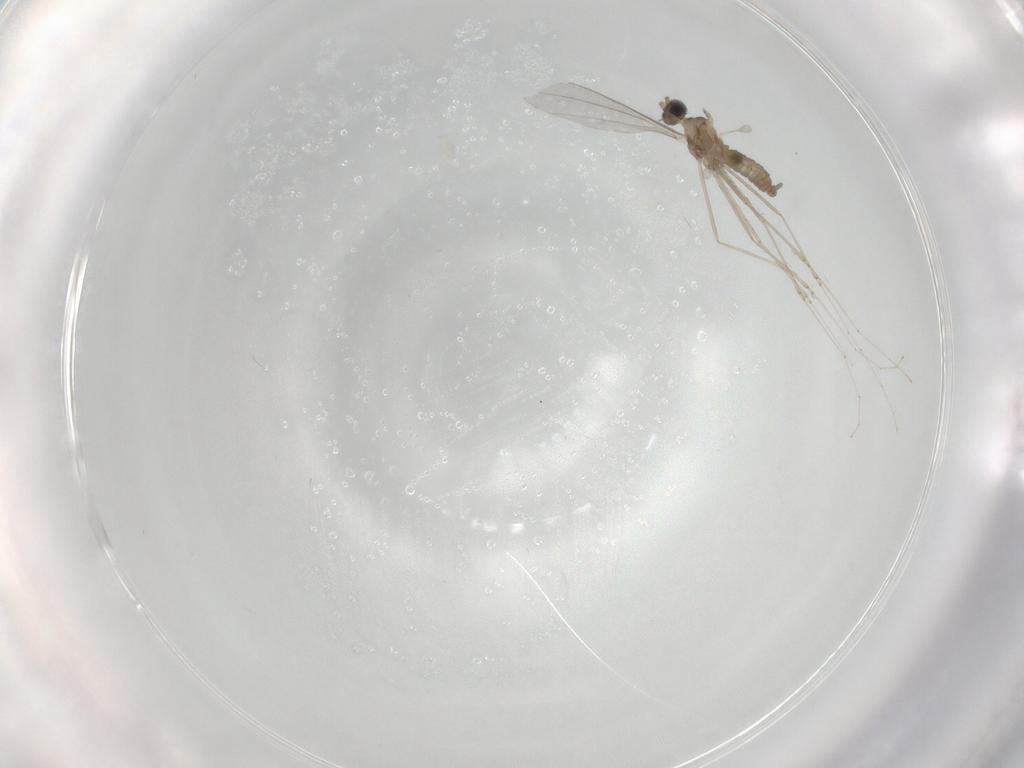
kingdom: Animalia
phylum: Arthropoda
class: Insecta
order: Diptera
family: Cecidomyiidae
